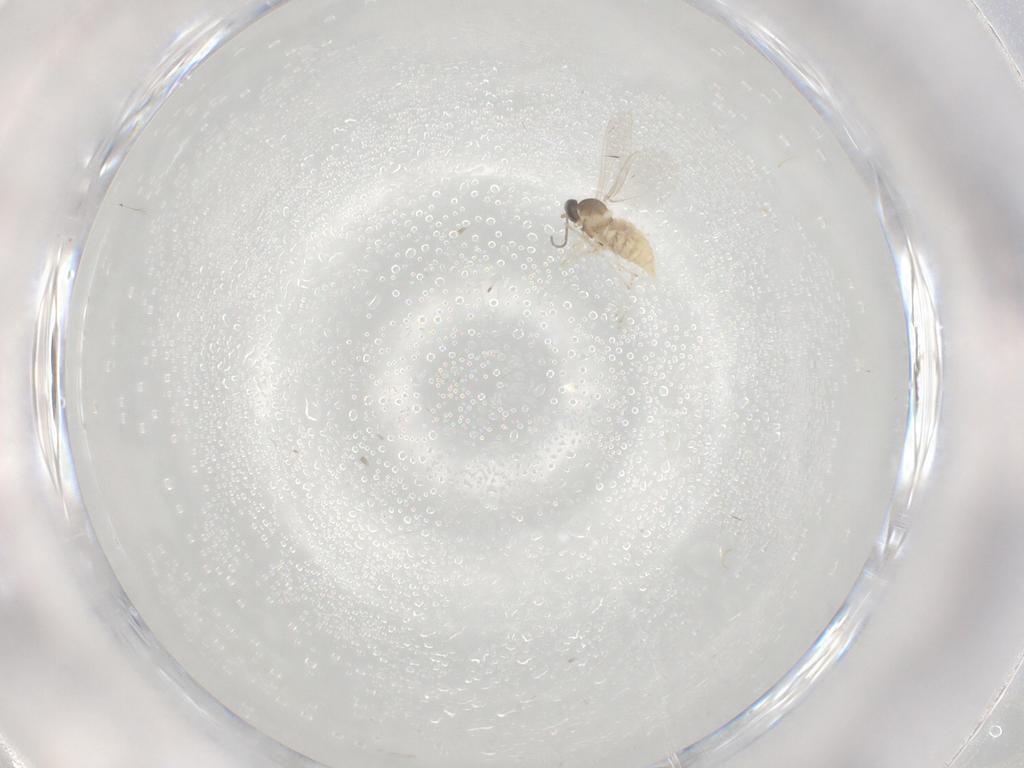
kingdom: Animalia
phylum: Arthropoda
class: Insecta
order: Diptera
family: Cecidomyiidae
